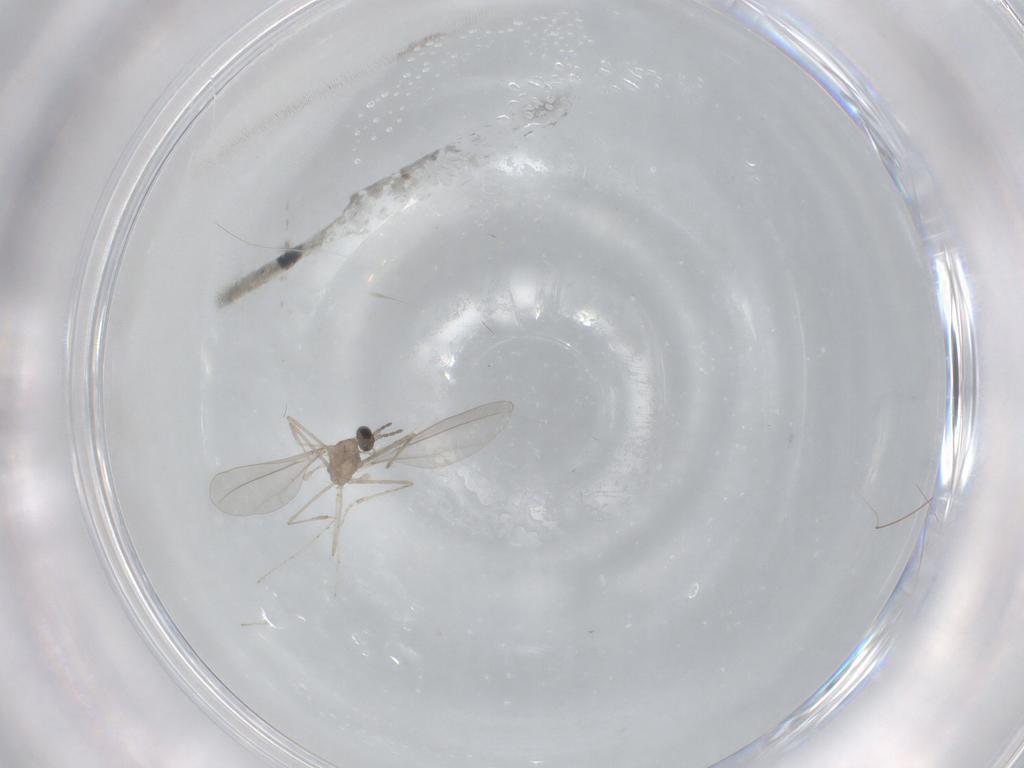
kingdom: Animalia
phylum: Arthropoda
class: Insecta
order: Diptera
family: Cecidomyiidae
